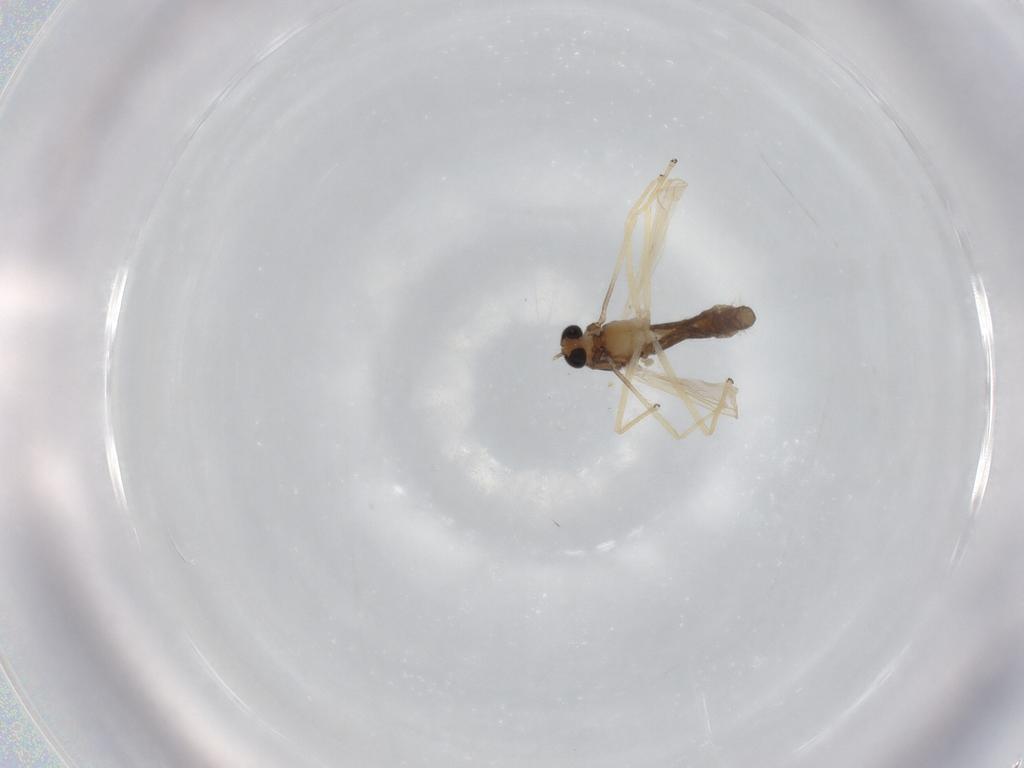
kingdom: Animalia
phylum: Arthropoda
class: Insecta
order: Diptera
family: Chironomidae
